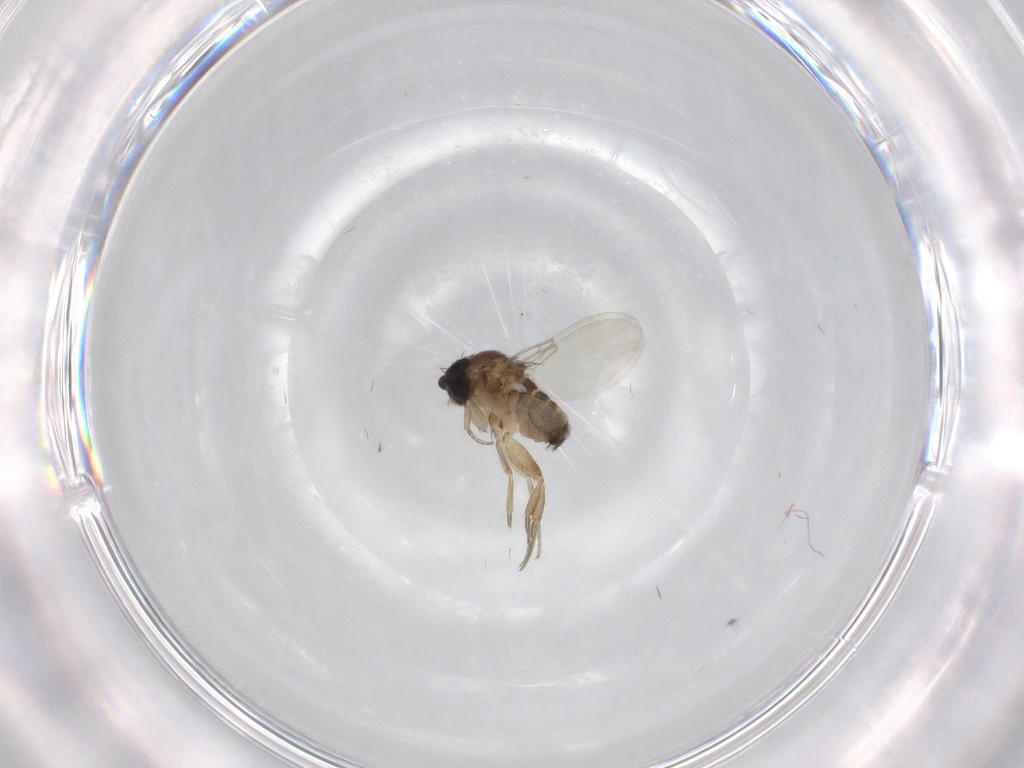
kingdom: Animalia
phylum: Arthropoda
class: Insecta
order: Diptera
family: Phoridae
